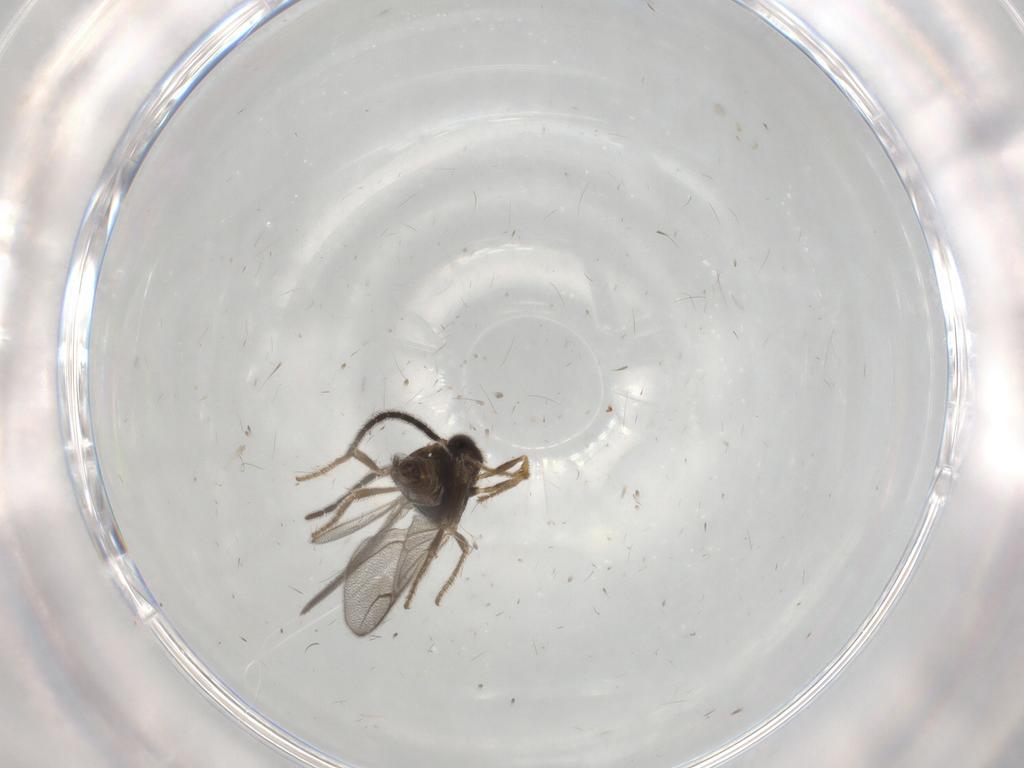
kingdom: Animalia
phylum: Arthropoda
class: Insecta
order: Hymenoptera
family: Dryinidae
